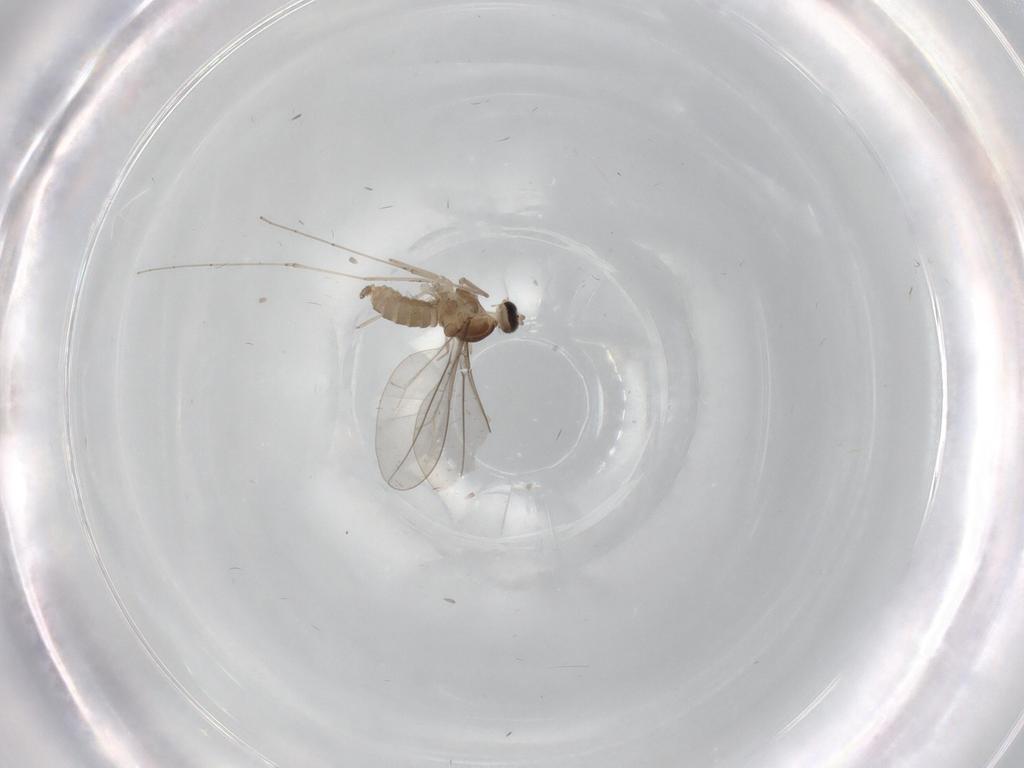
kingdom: Animalia
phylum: Arthropoda
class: Insecta
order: Diptera
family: Cecidomyiidae
